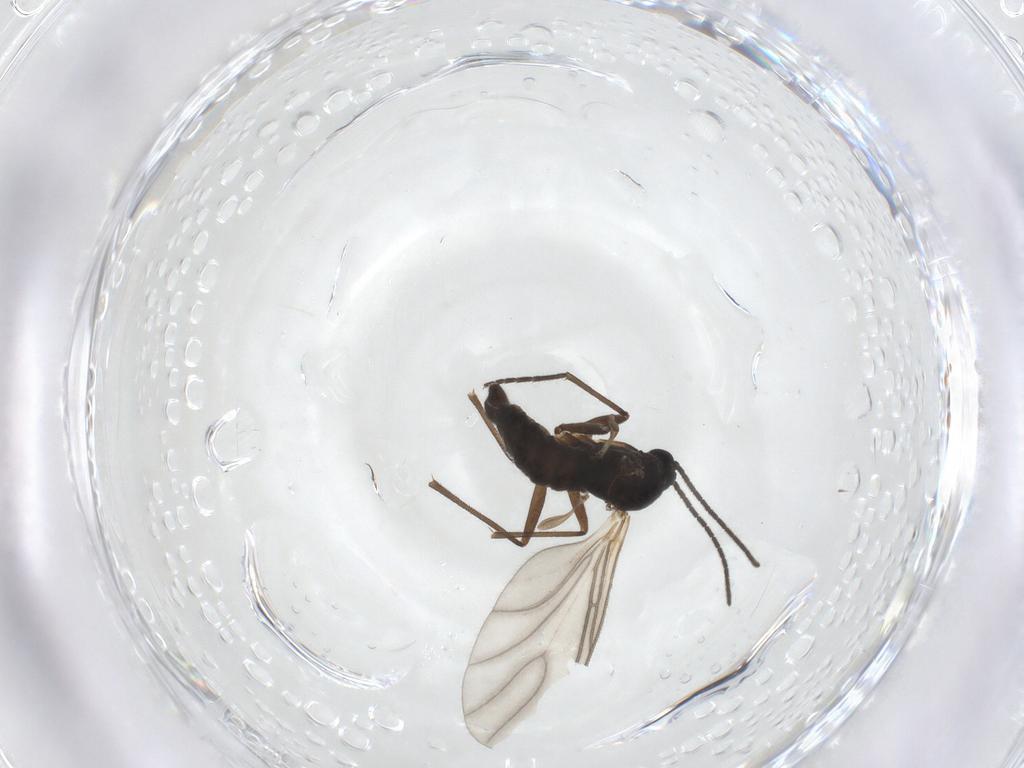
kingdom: Animalia
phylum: Arthropoda
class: Insecta
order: Diptera
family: Sciaridae
